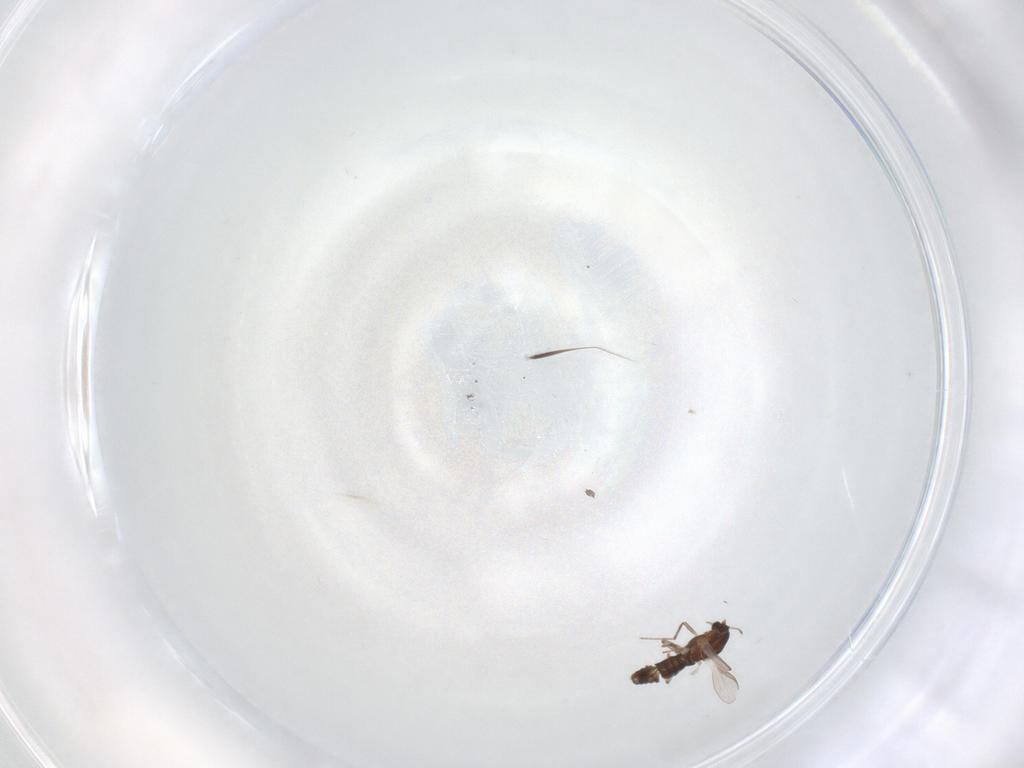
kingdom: Animalia
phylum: Arthropoda
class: Insecta
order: Diptera
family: Chironomidae
